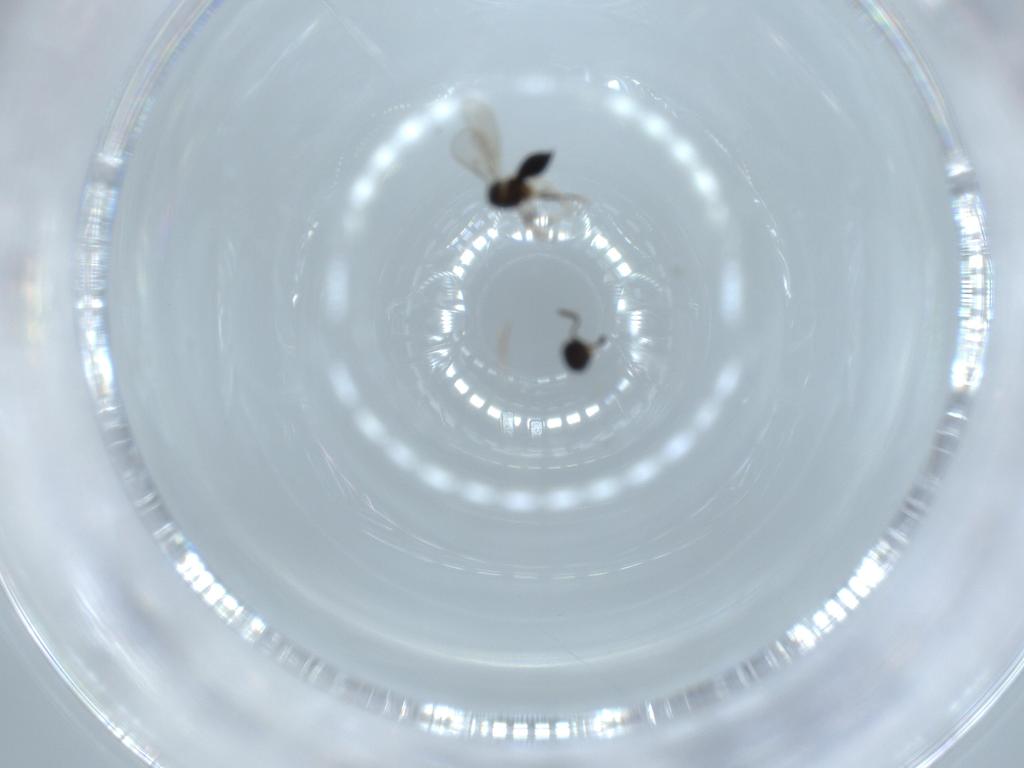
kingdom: Animalia
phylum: Arthropoda
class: Insecta
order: Hymenoptera
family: Scelionidae
